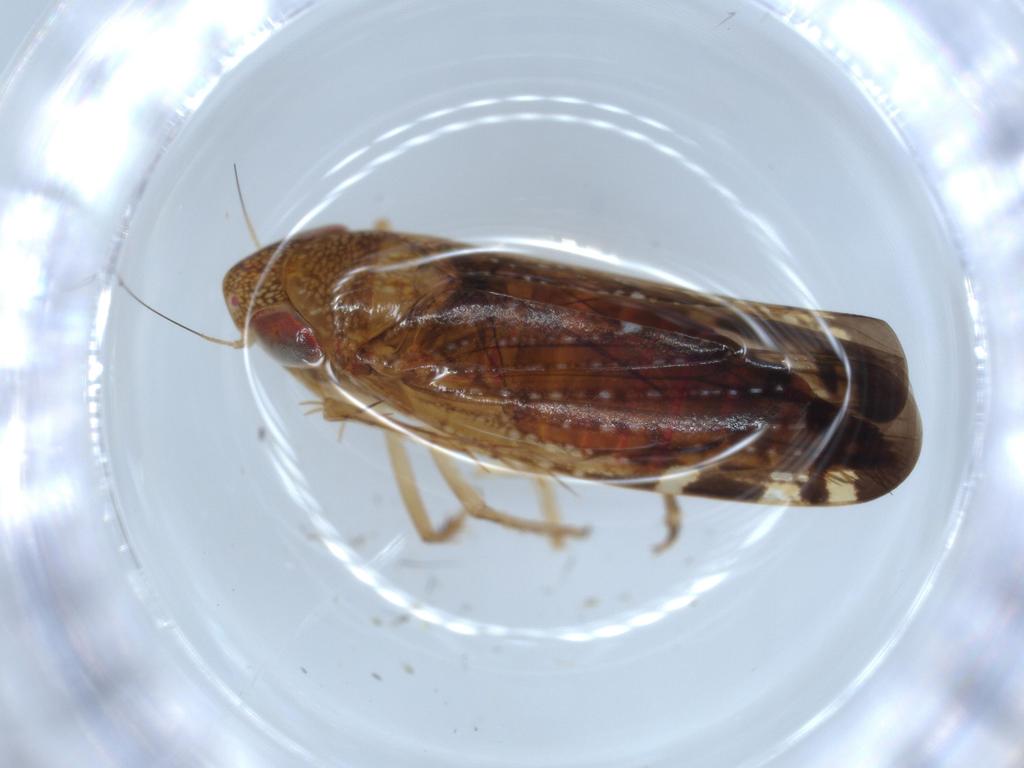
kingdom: Animalia
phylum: Arthropoda
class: Insecta
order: Hemiptera
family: Cicadellidae
